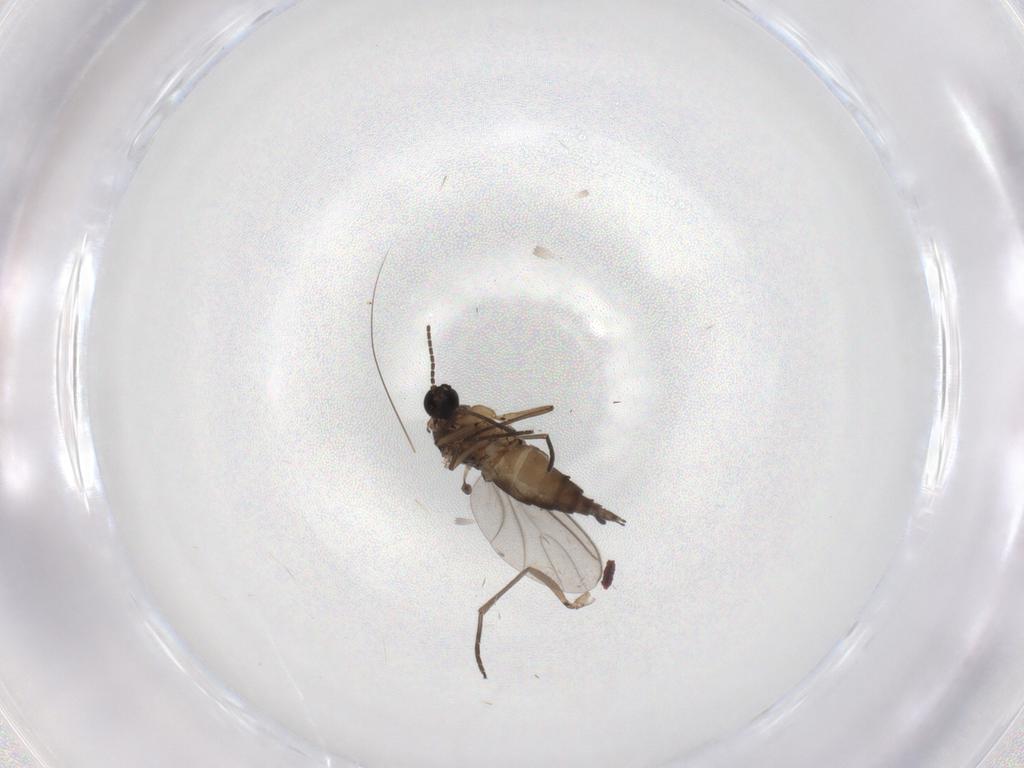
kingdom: Animalia
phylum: Arthropoda
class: Insecta
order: Diptera
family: Sciaridae
